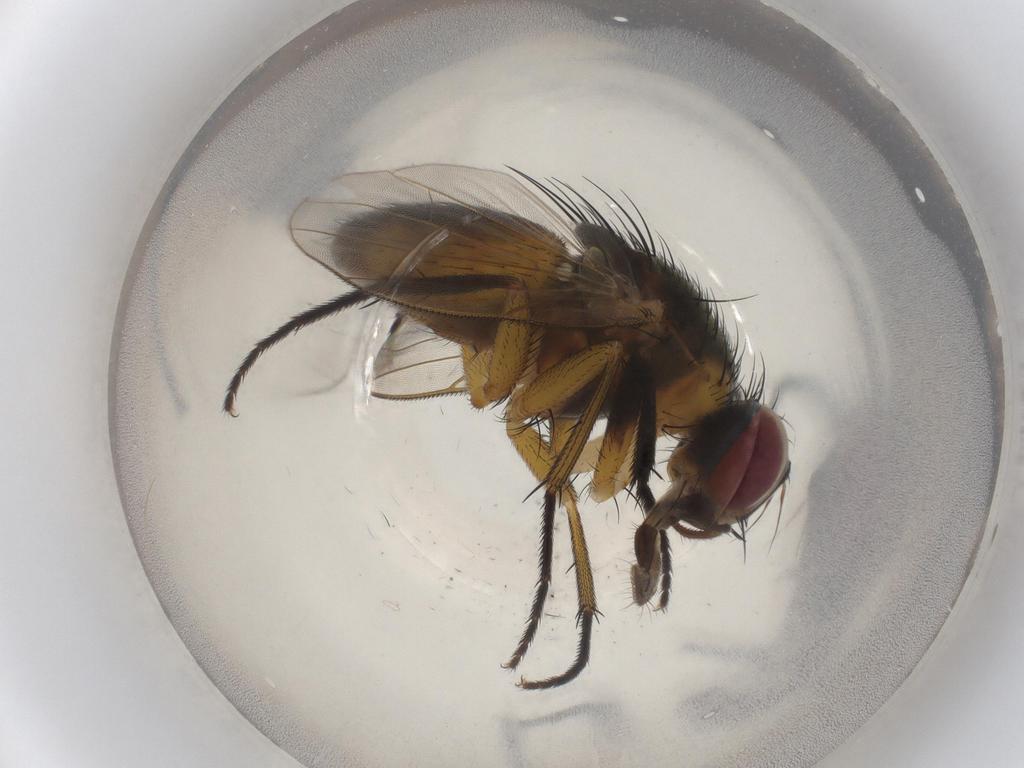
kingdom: Animalia
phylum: Arthropoda
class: Insecta
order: Diptera
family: Muscidae
